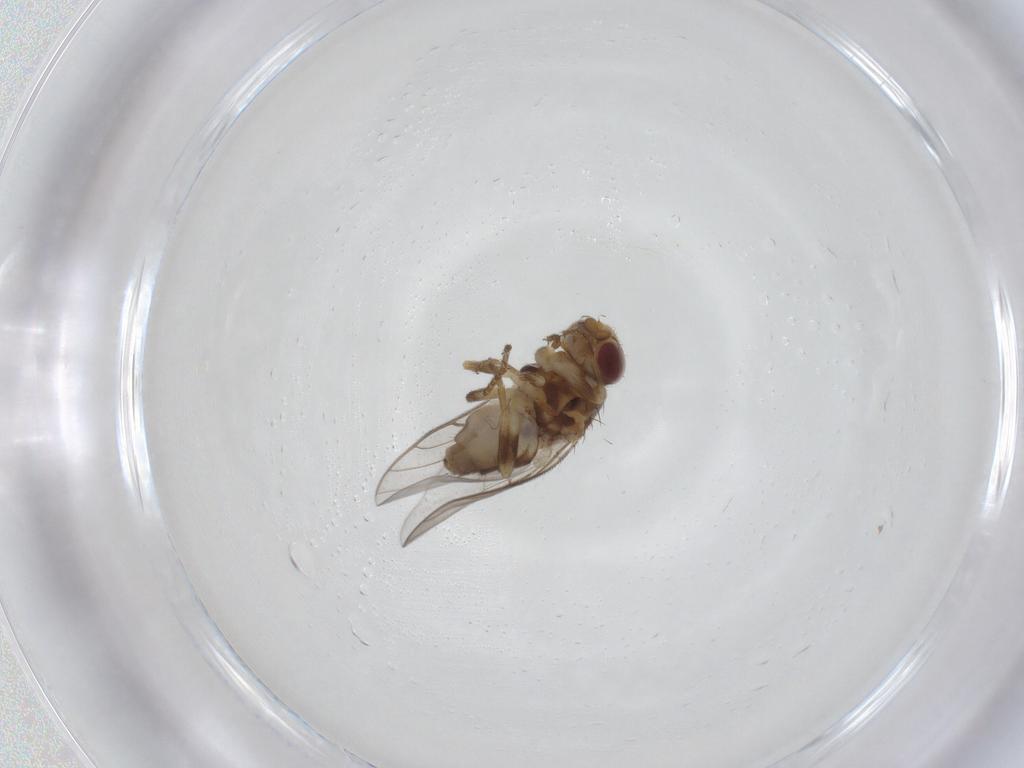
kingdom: Animalia
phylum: Arthropoda
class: Insecta
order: Diptera
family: Chloropidae
